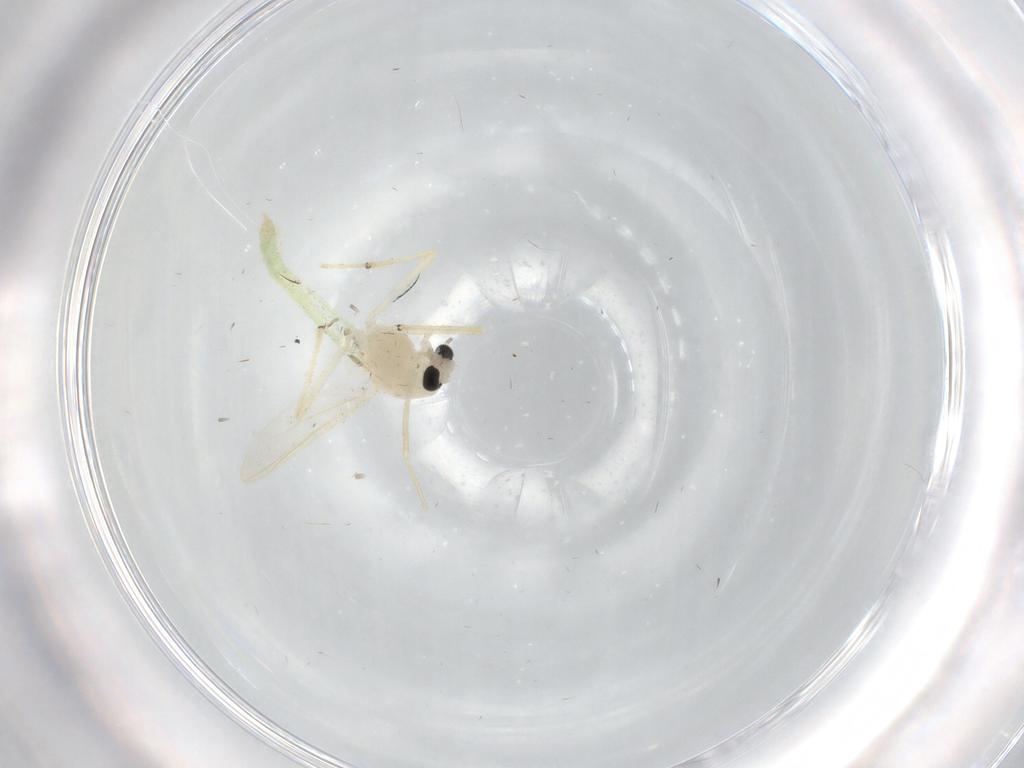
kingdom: Animalia
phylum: Arthropoda
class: Insecta
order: Diptera
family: Chironomidae
